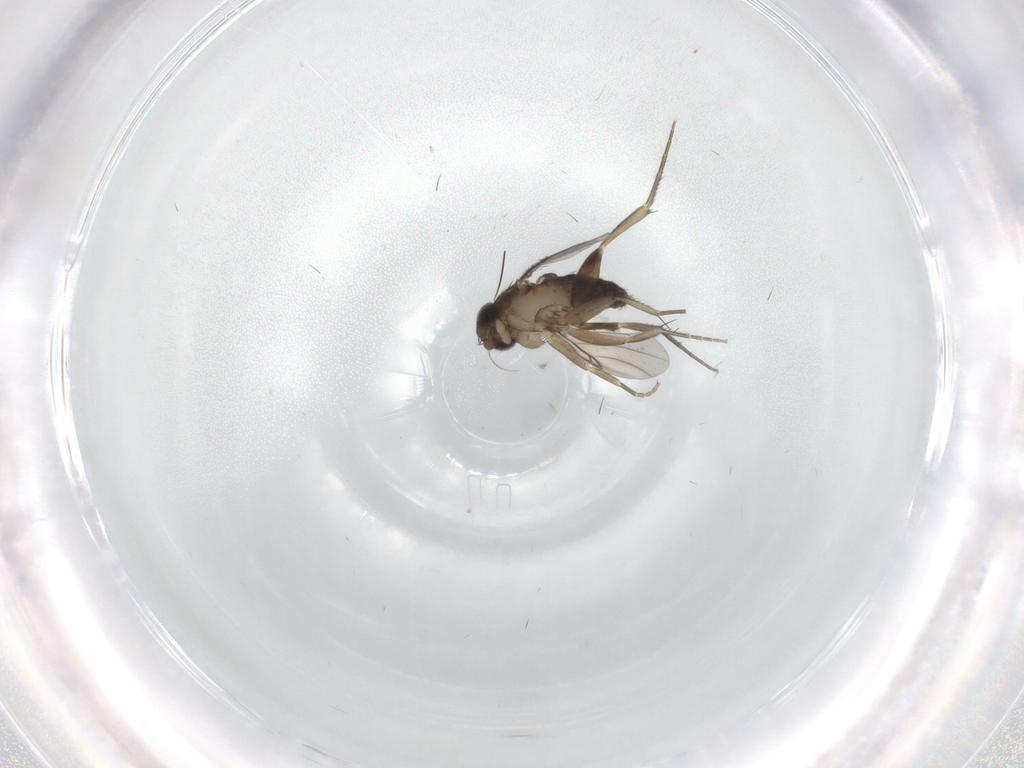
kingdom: Animalia
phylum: Arthropoda
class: Insecta
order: Diptera
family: Phoridae
